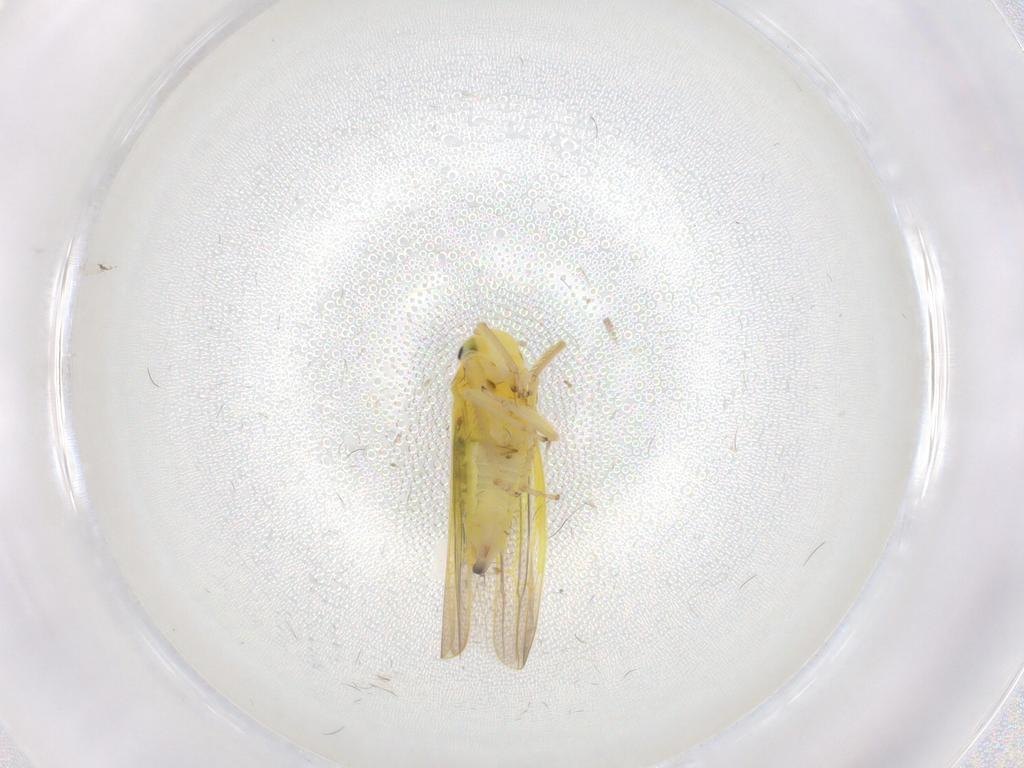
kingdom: Animalia
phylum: Arthropoda
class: Insecta
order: Hemiptera
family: Cicadellidae
